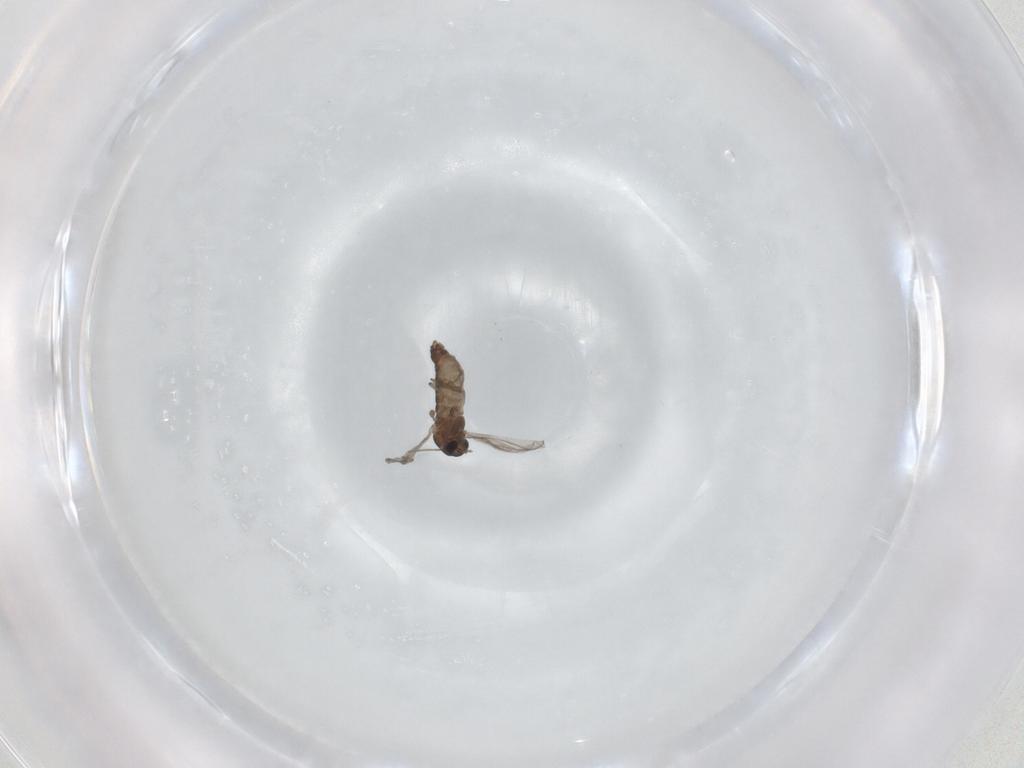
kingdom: Animalia
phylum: Arthropoda
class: Insecta
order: Diptera
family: Chironomidae
